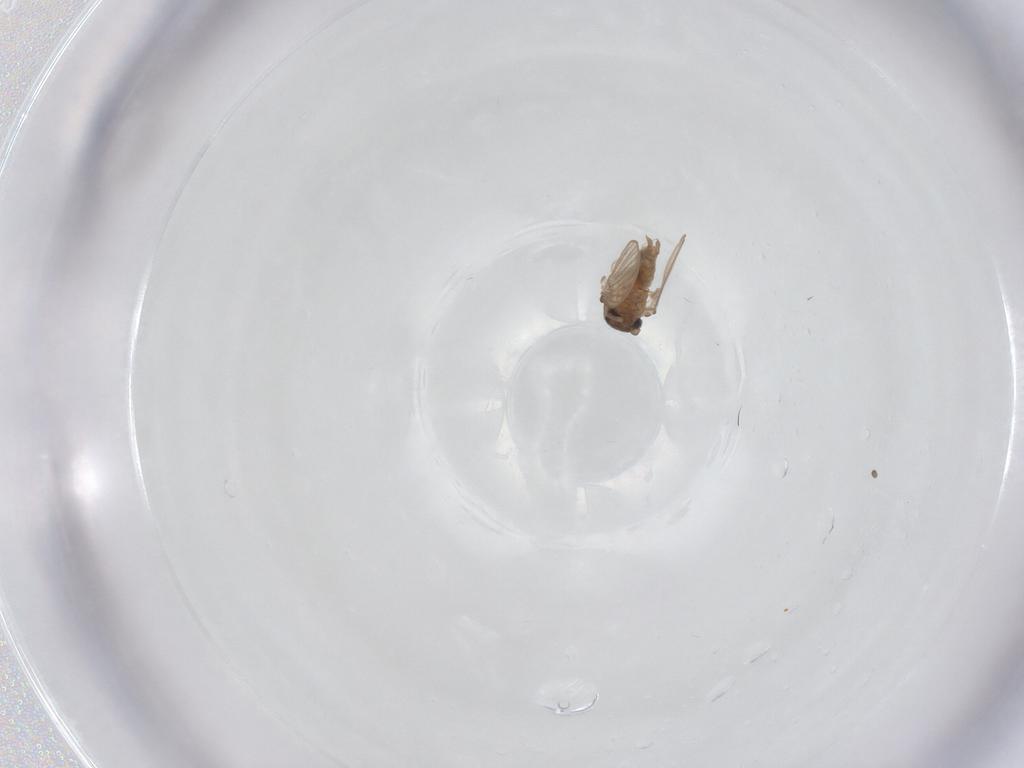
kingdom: Animalia
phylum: Arthropoda
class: Insecta
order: Diptera
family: Psychodidae
